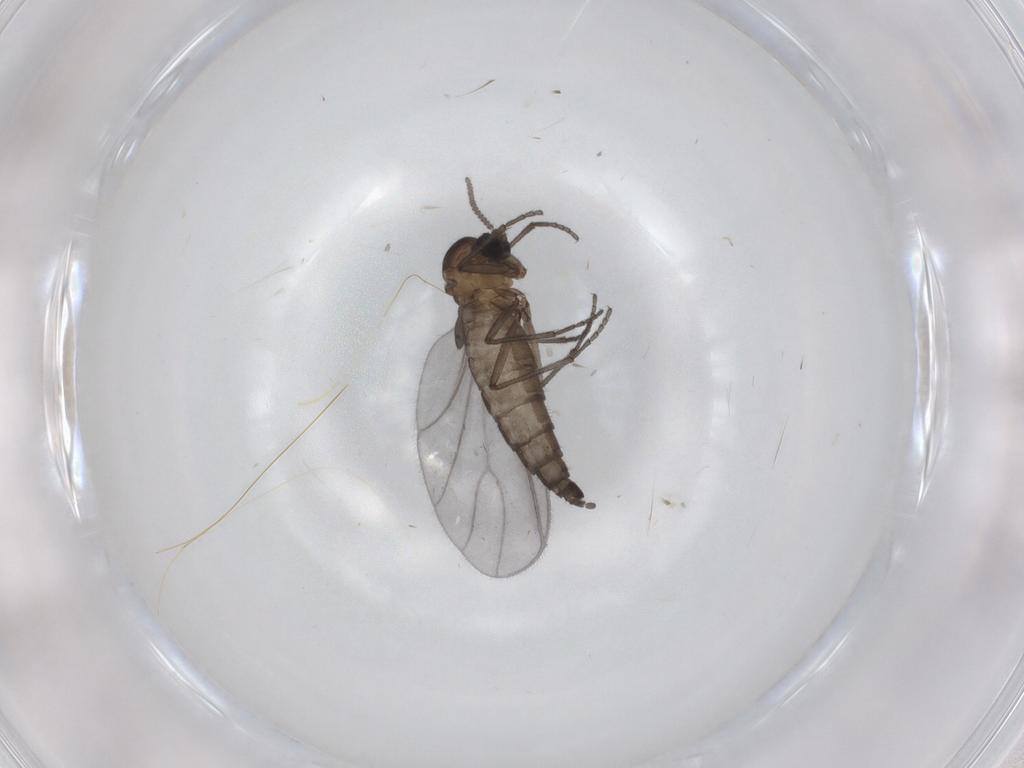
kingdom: Animalia
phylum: Arthropoda
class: Insecta
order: Diptera
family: Sciaridae
